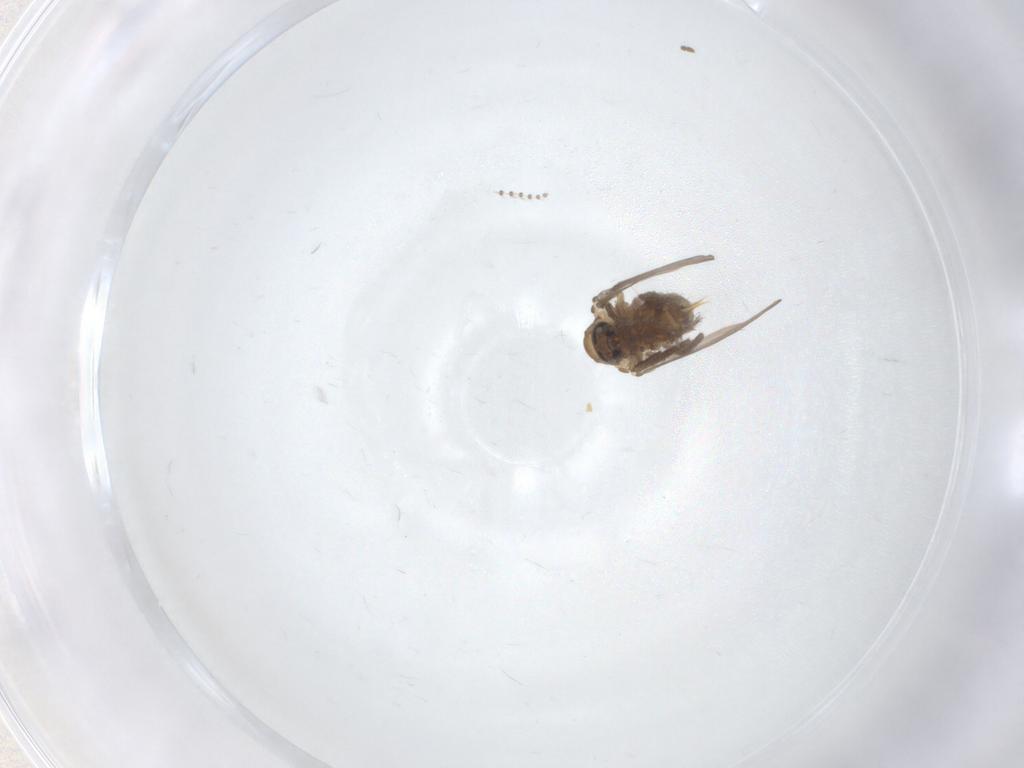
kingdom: Animalia
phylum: Arthropoda
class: Insecta
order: Diptera
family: Psychodidae
